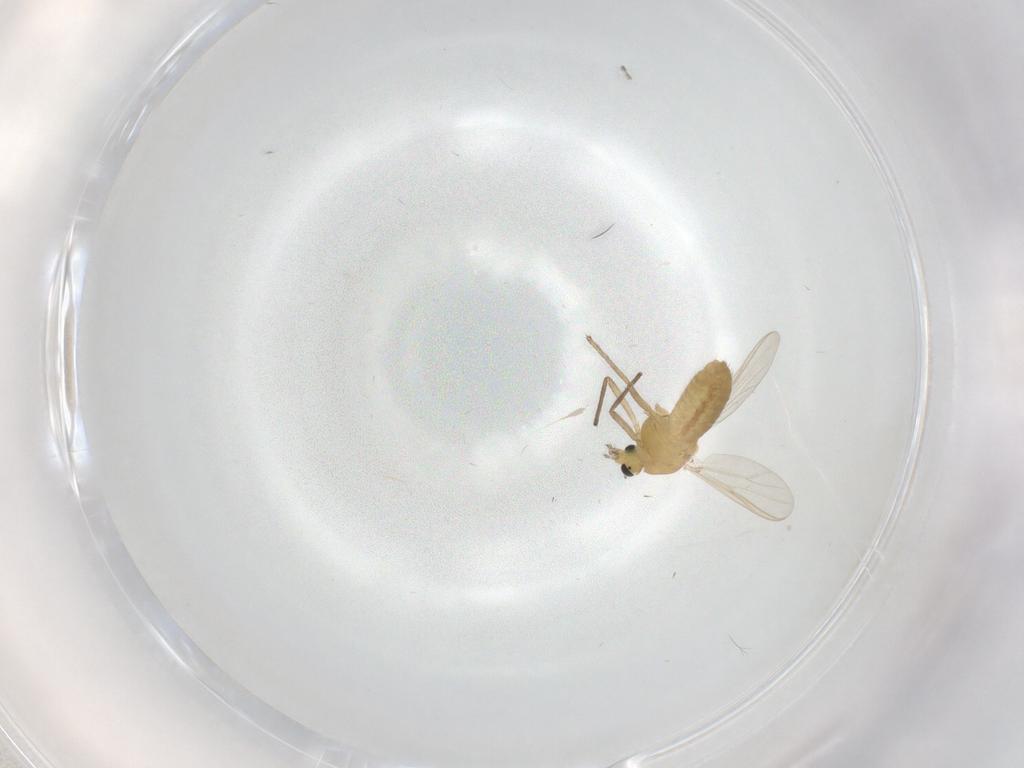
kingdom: Animalia
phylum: Arthropoda
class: Insecta
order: Diptera
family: Chironomidae
